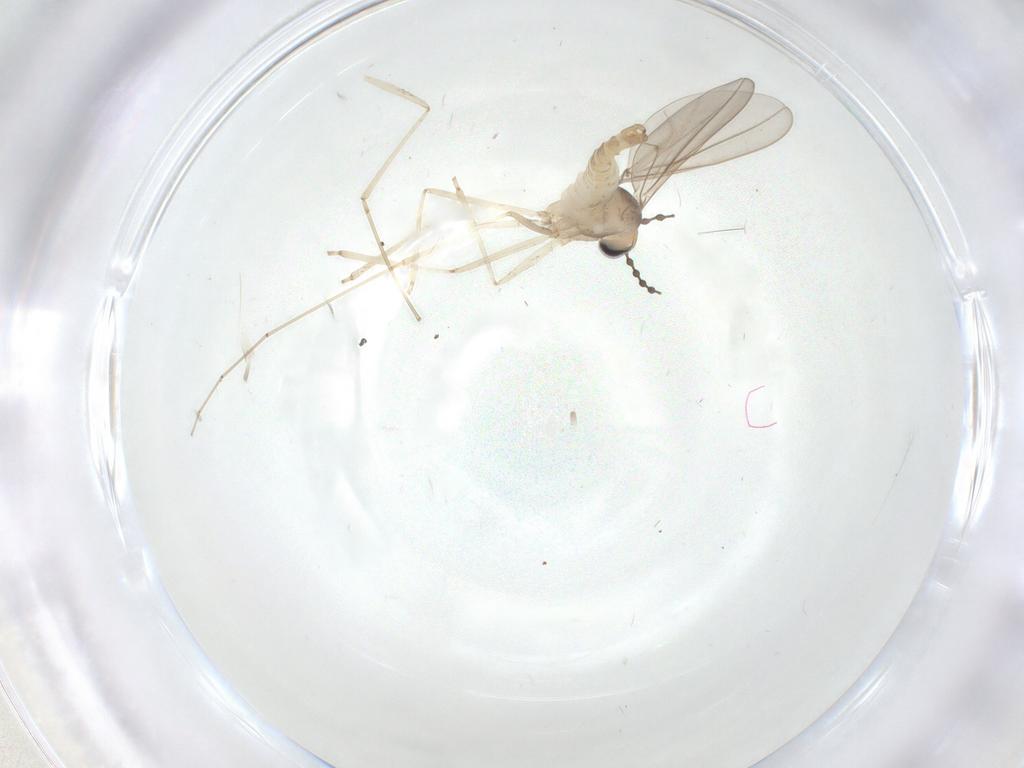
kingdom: Animalia
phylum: Arthropoda
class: Insecta
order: Diptera
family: Cecidomyiidae
